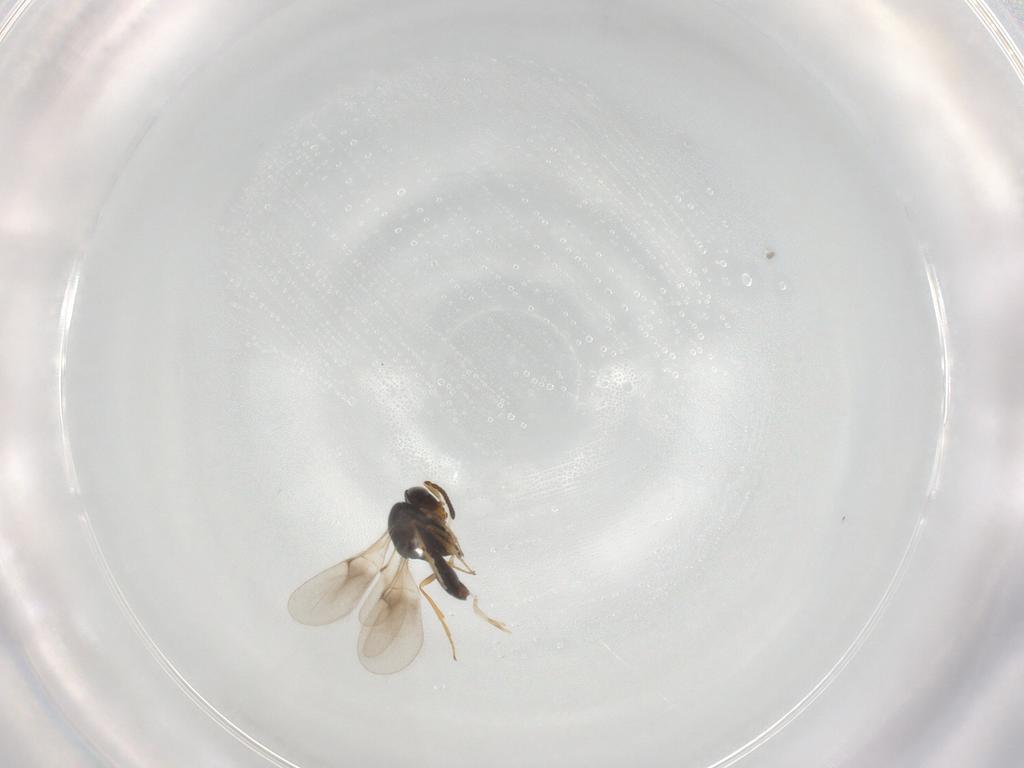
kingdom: Animalia
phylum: Arthropoda
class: Insecta
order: Hymenoptera
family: Scelionidae
